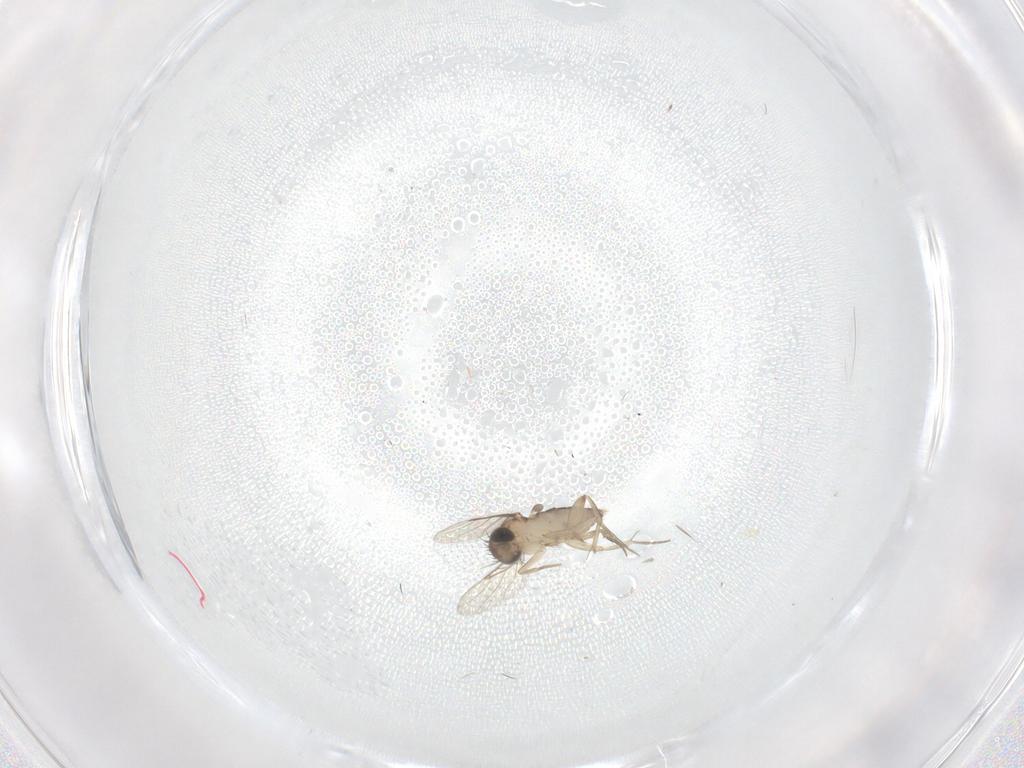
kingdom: Animalia
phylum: Arthropoda
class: Insecta
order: Diptera
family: Phoridae
